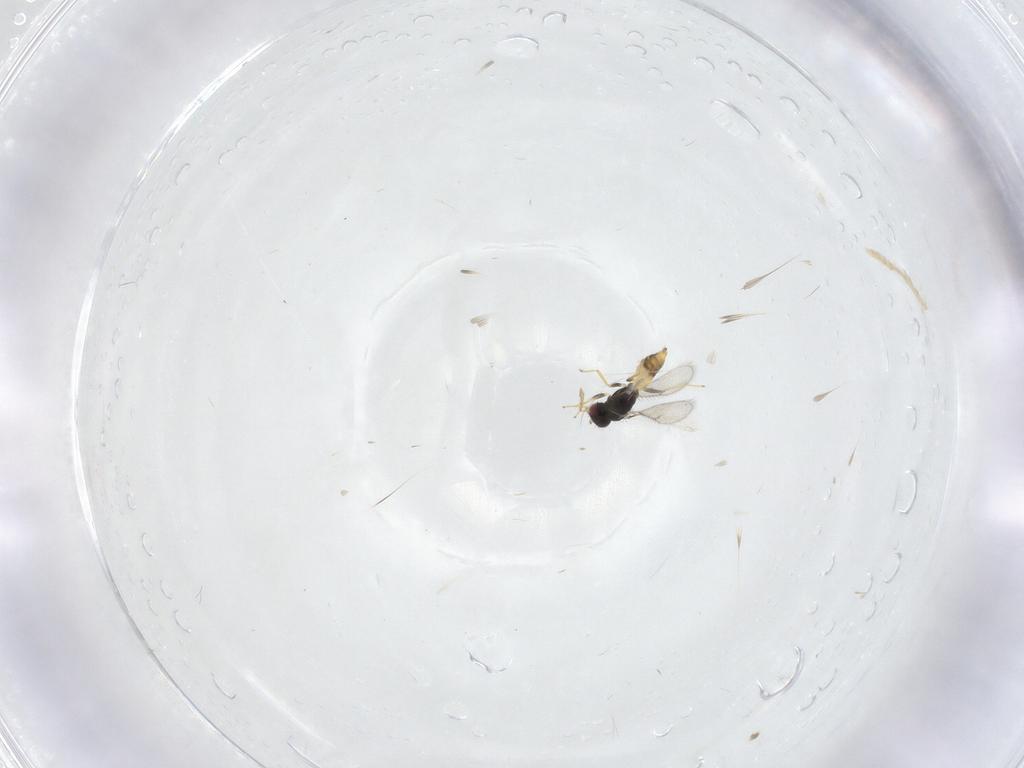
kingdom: Animalia
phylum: Arthropoda
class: Insecta
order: Hymenoptera
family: Eulophidae
